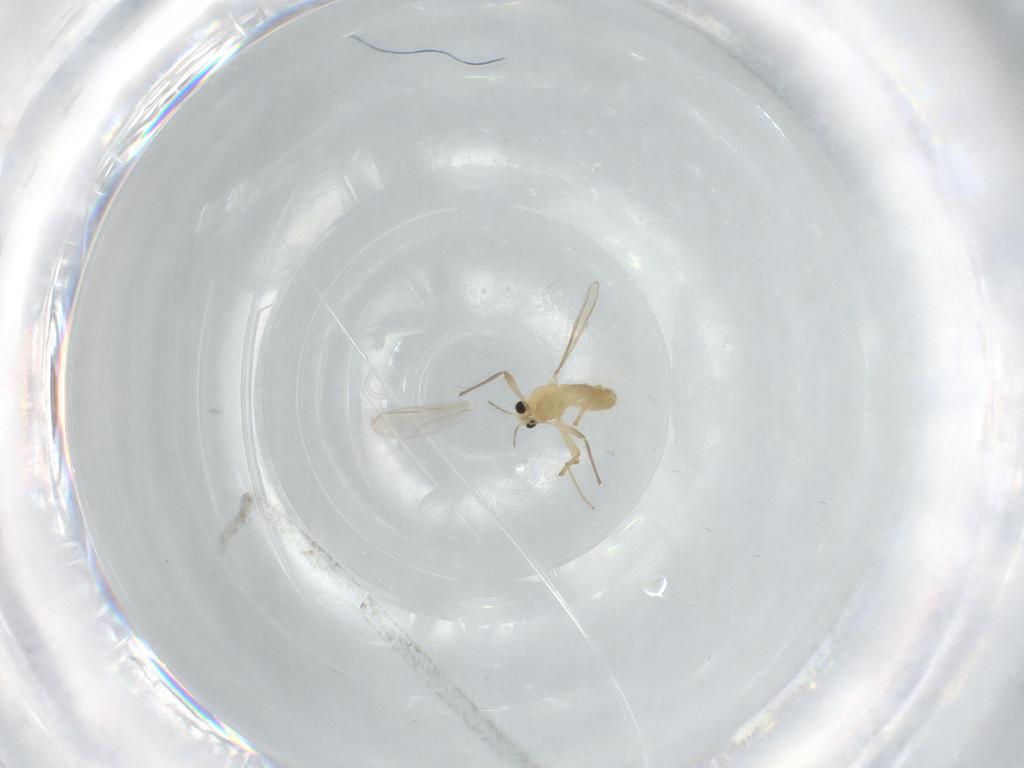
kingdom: Animalia
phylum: Arthropoda
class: Insecta
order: Diptera
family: Chironomidae
